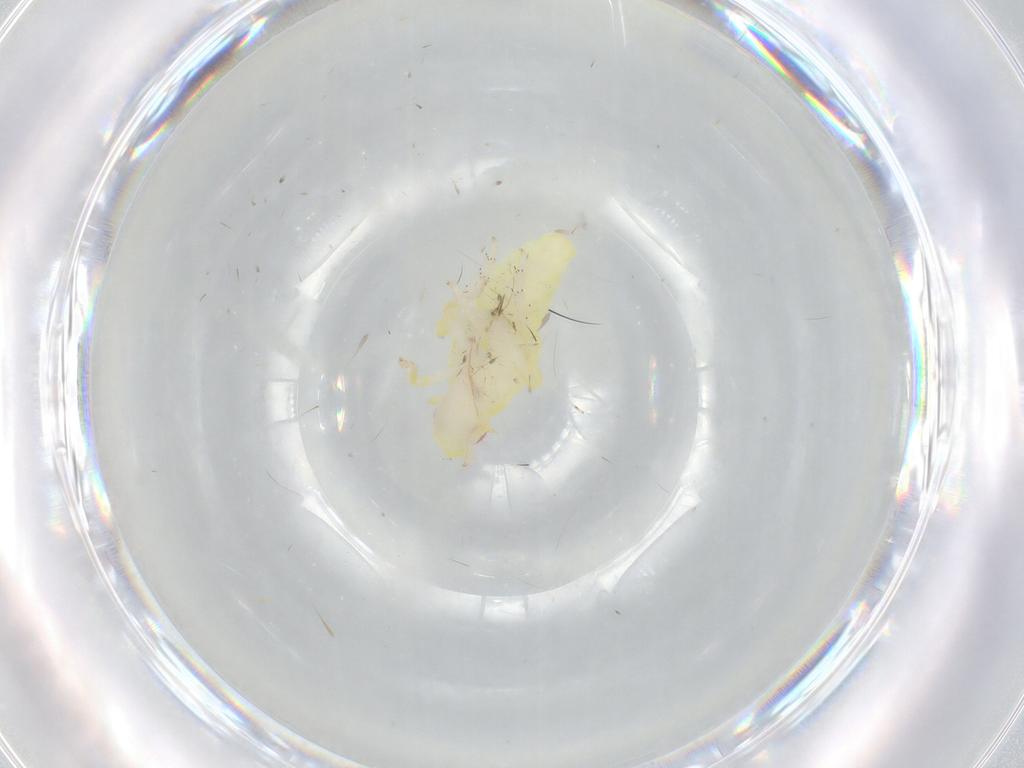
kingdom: Animalia
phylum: Arthropoda
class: Insecta
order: Hemiptera
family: Tropiduchidae
